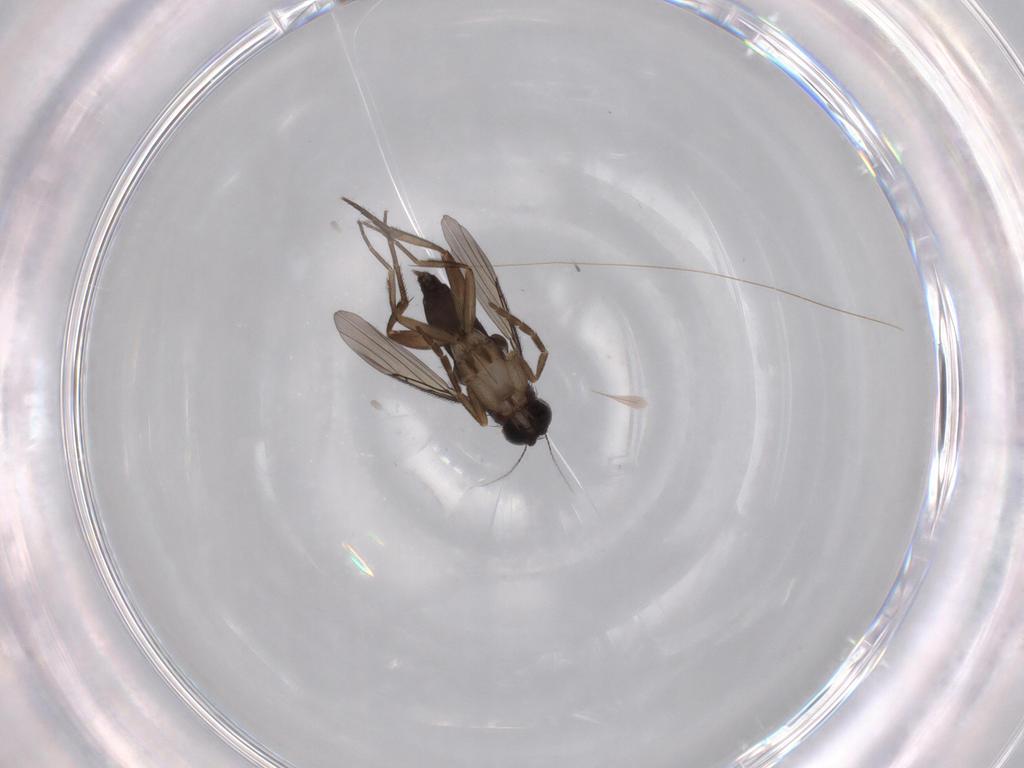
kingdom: Animalia
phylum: Arthropoda
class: Insecta
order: Diptera
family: Phoridae
